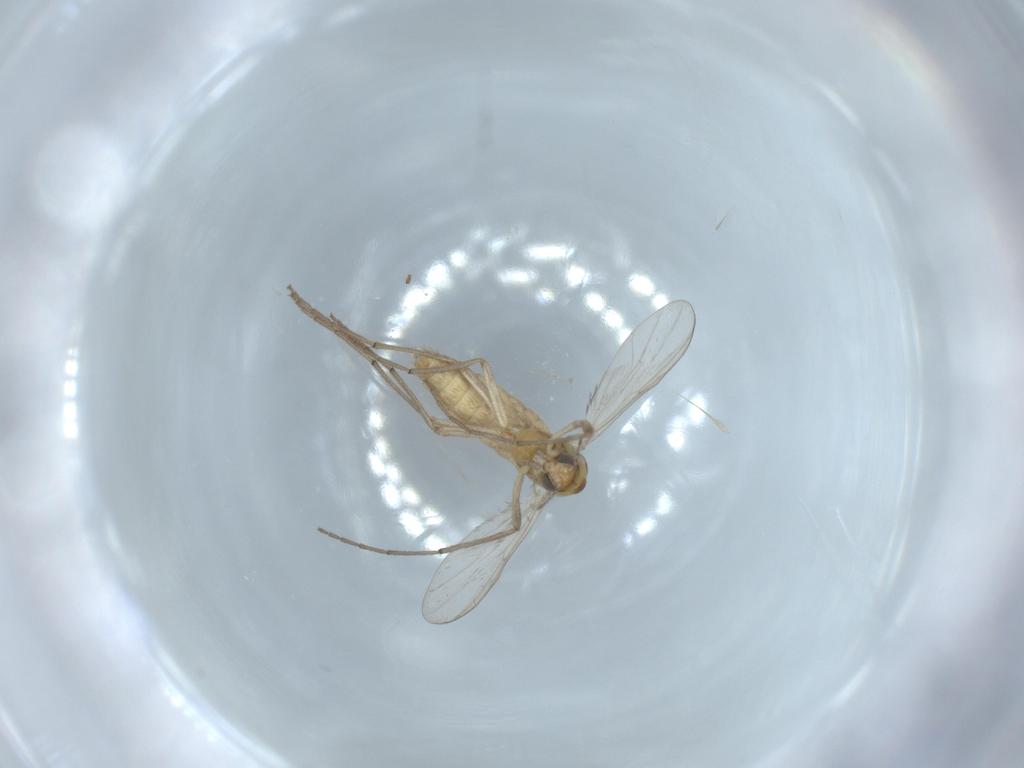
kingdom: Animalia
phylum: Arthropoda
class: Insecta
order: Diptera
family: Chironomidae
